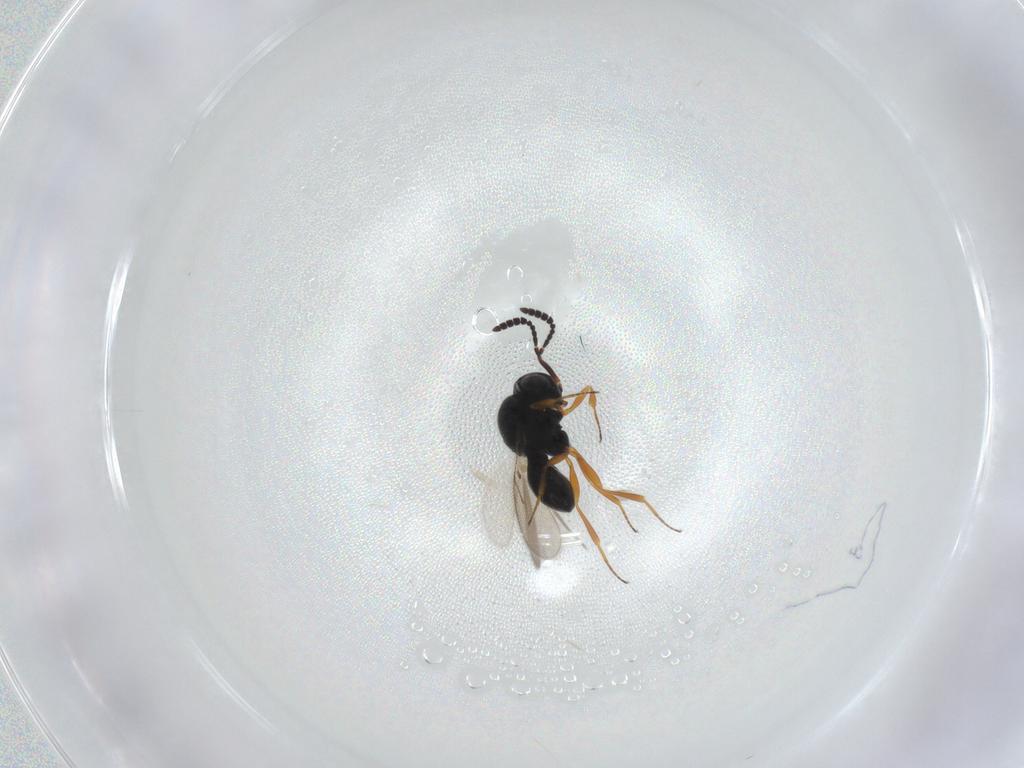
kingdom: Animalia
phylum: Arthropoda
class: Insecta
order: Hymenoptera
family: Scelionidae
